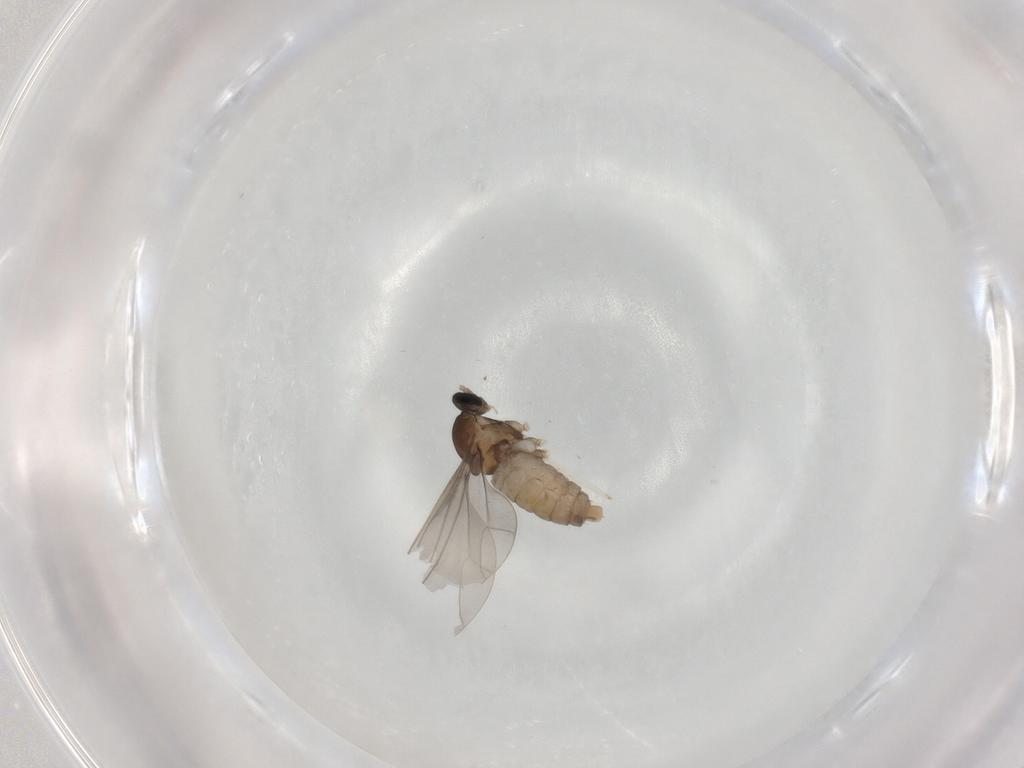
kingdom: Animalia
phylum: Arthropoda
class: Insecta
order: Diptera
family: Chironomidae
